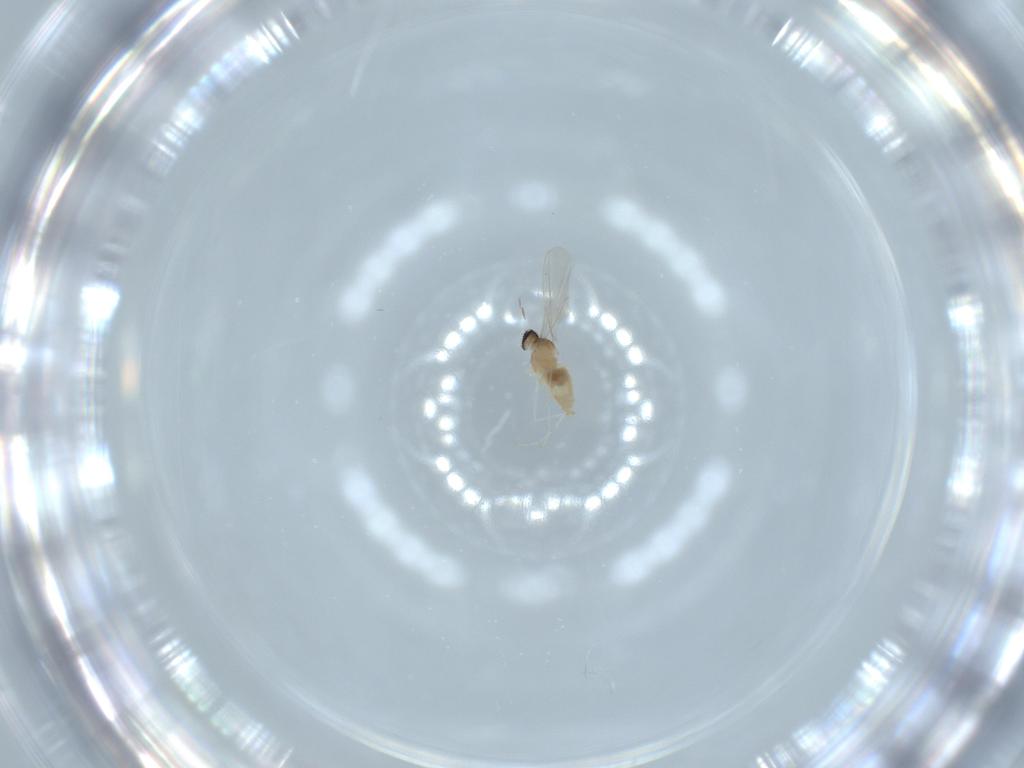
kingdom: Animalia
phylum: Arthropoda
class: Insecta
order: Diptera
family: Cecidomyiidae
